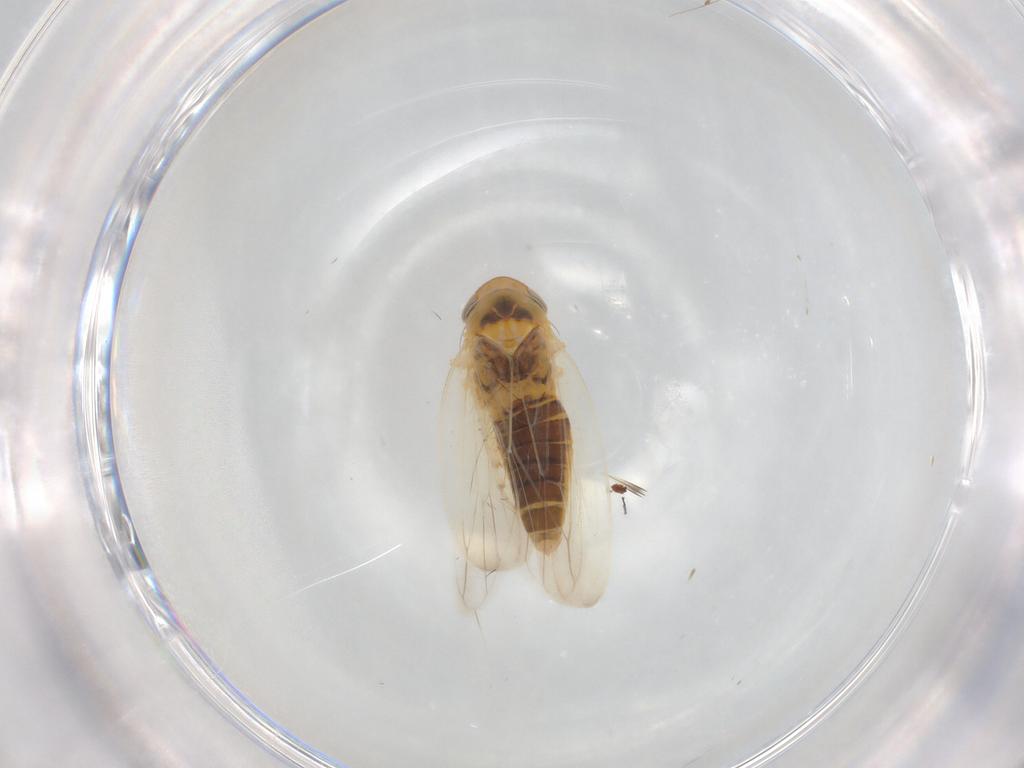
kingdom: Animalia
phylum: Arthropoda
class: Insecta
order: Hemiptera
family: Cicadellidae
